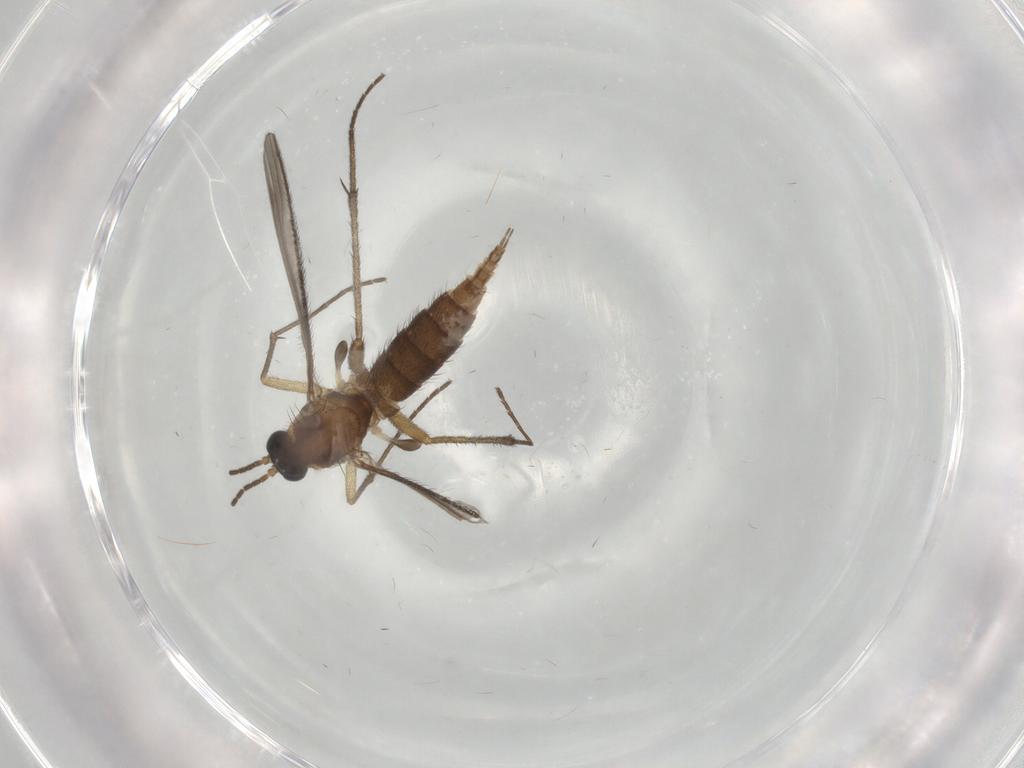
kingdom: Animalia
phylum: Arthropoda
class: Insecta
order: Diptera
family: Sciaridae
